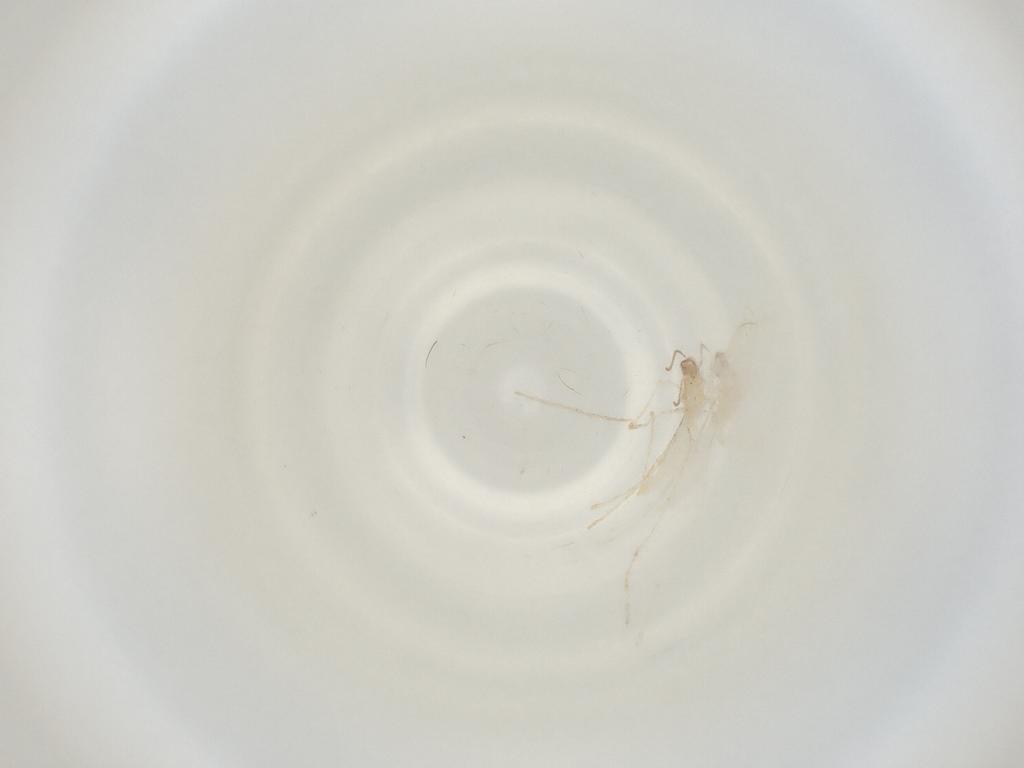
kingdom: Animalia
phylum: Arthropoda
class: Insecta
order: Diptera
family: Cecidomyiidae
